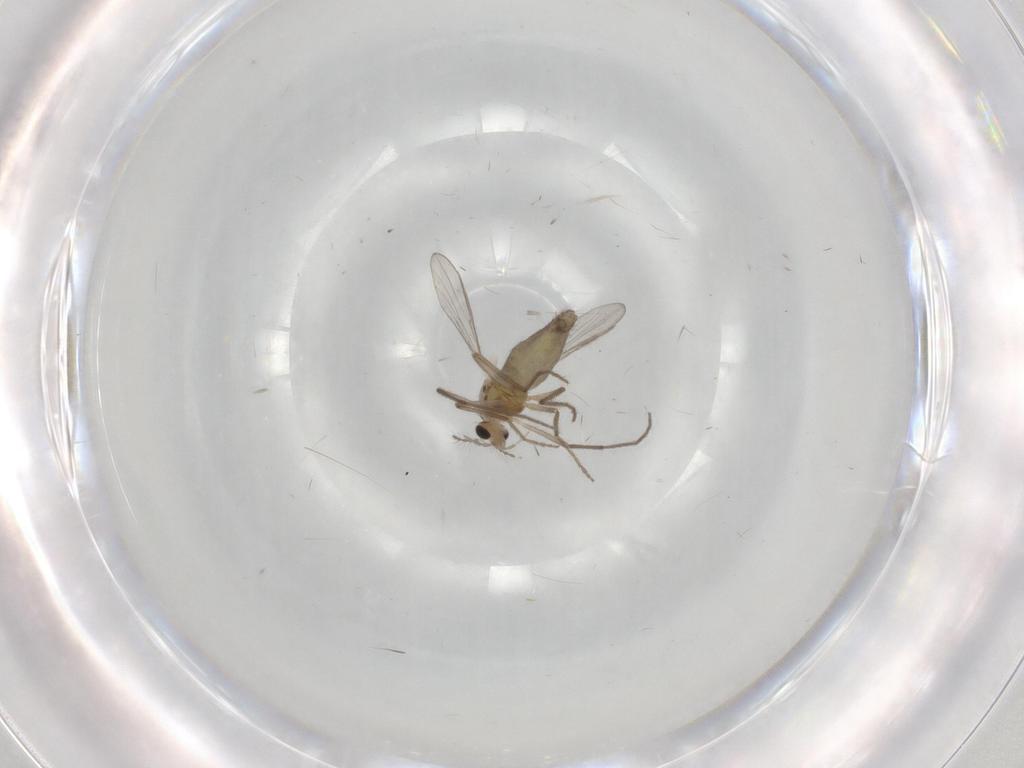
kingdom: Animalia
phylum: Arthropoda
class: Insecta
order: Diptera
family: Chironomidae
